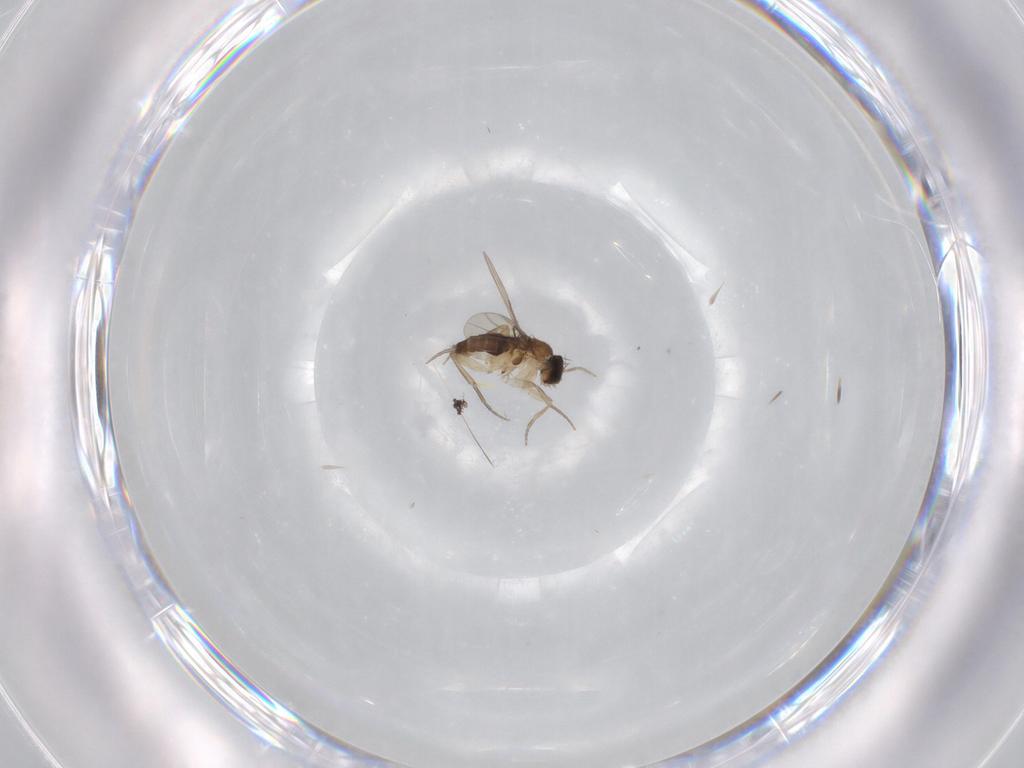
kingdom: Animalia
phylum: Arthropoda
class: Insecta
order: Diptera
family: Phoridae
